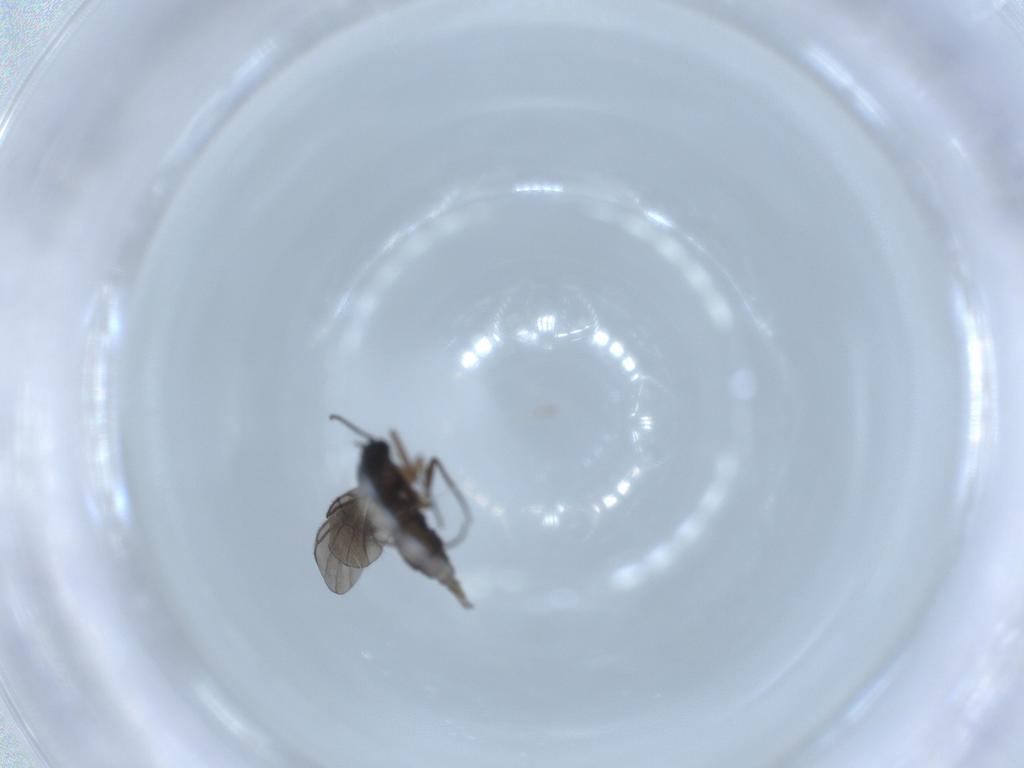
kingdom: Animalia
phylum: Arthropoda
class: Insecta
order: Diptera
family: Sciaridae
